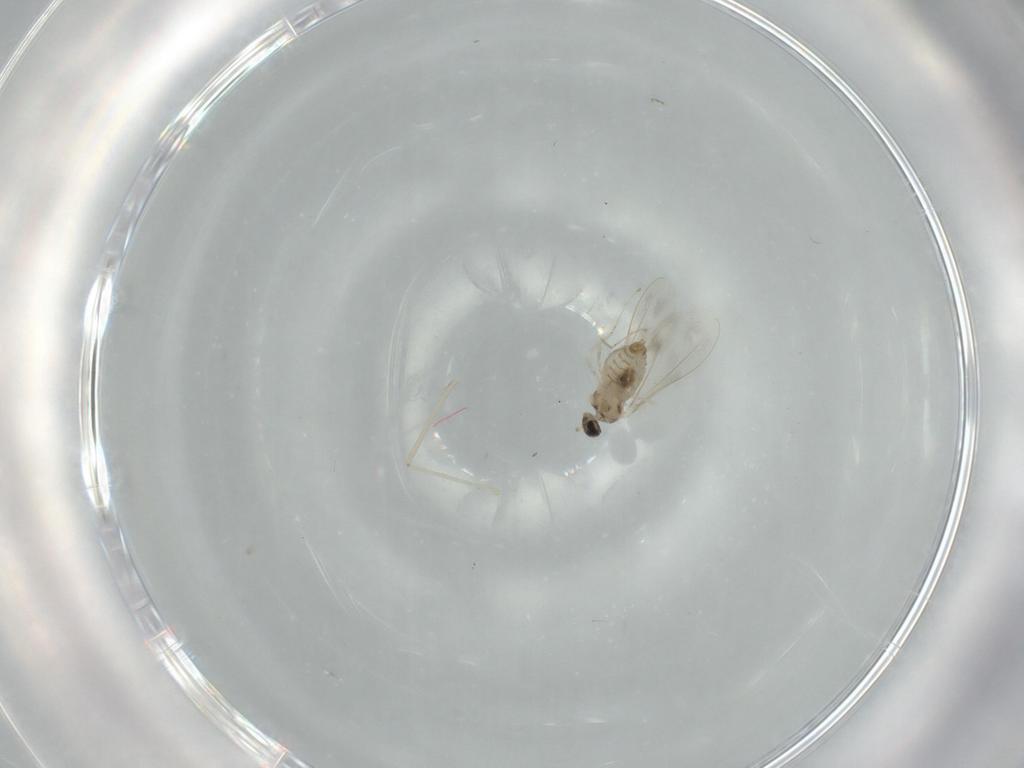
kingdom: Animalia
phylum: Arthropoda
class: Insecta
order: Diptera
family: Cecidomyiidae
